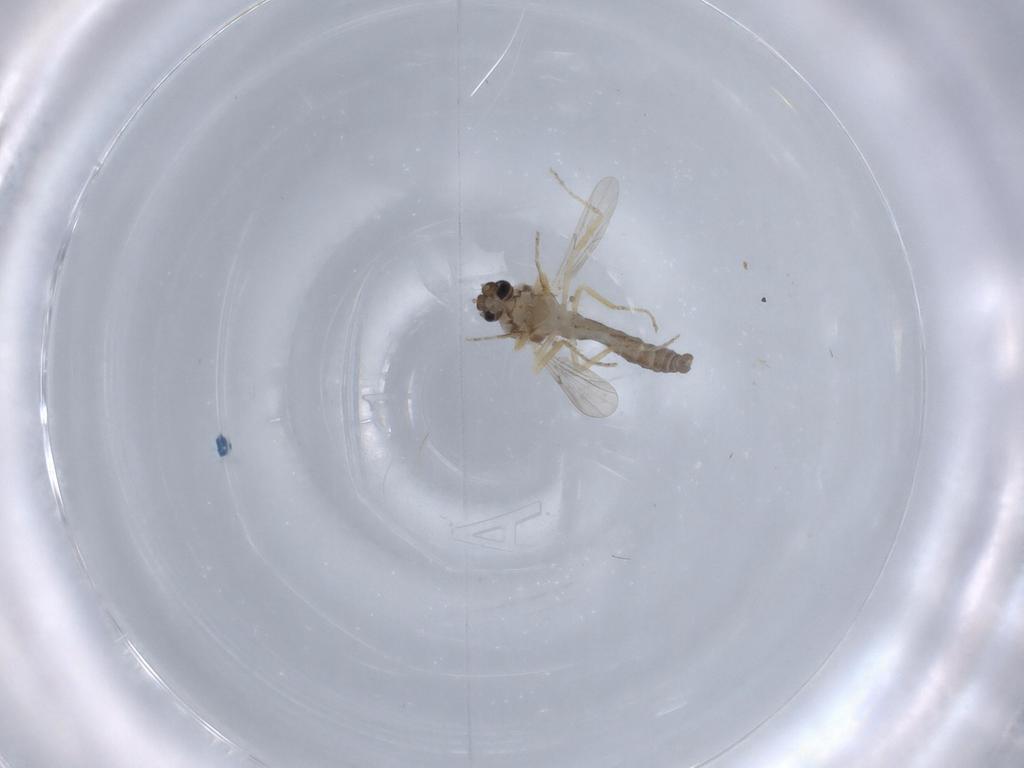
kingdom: Animalia
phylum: Arthropoda
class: Insecta
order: Diptera
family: Ceratopogonidae
